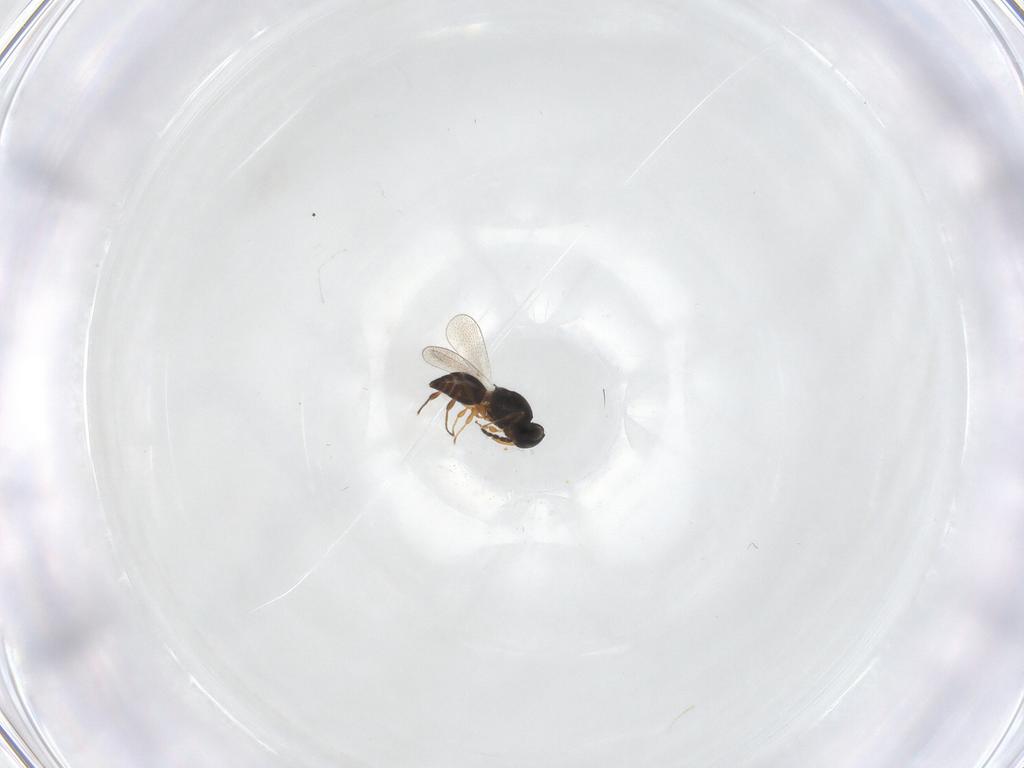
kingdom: Animalia
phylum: Arthropoda
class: Insecta
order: Hymenoptera
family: Platygastridae
